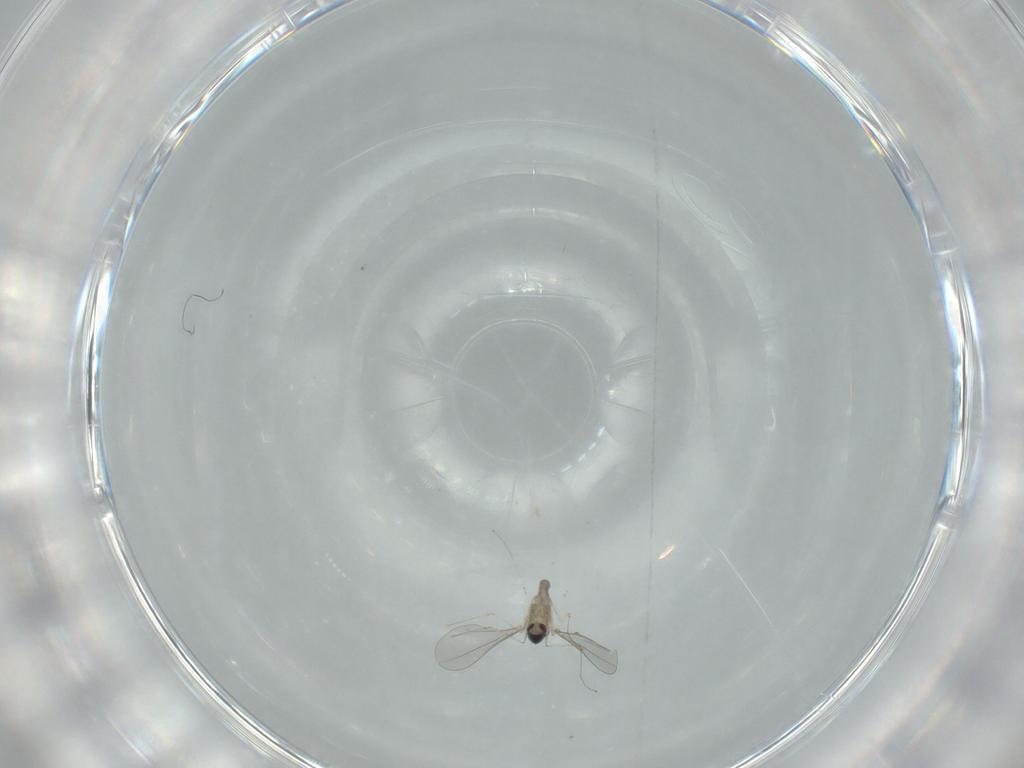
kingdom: Animalia
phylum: Arthropoda
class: Insecta
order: Diptera
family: Cecidomyiidae
